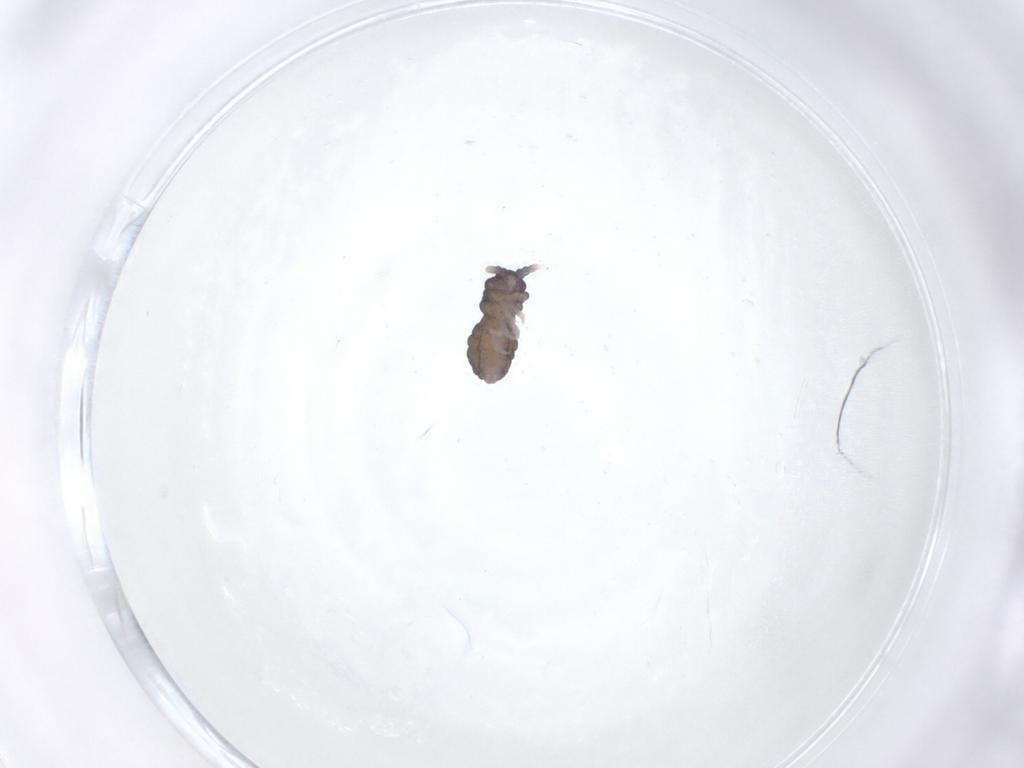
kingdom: Animalia
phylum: Arthropoda
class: Collembola
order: Poduromorpha
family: Neanuridae
